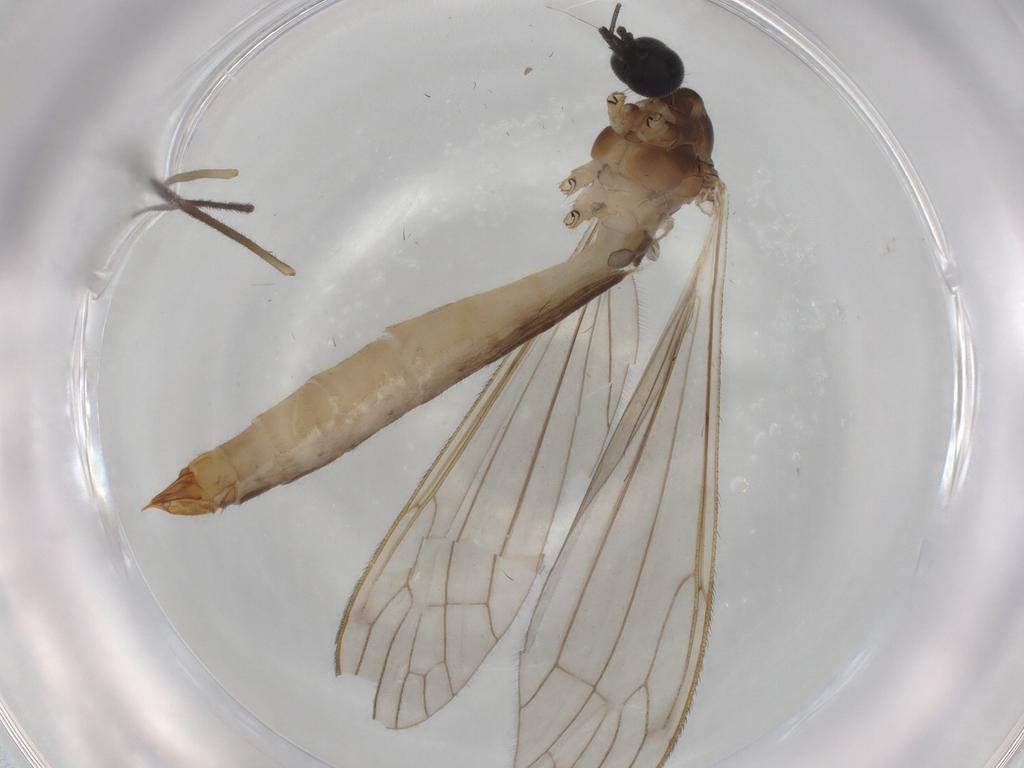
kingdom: Animalia
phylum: Arthropoda
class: Insecta
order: Diptera
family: Limoniidae
